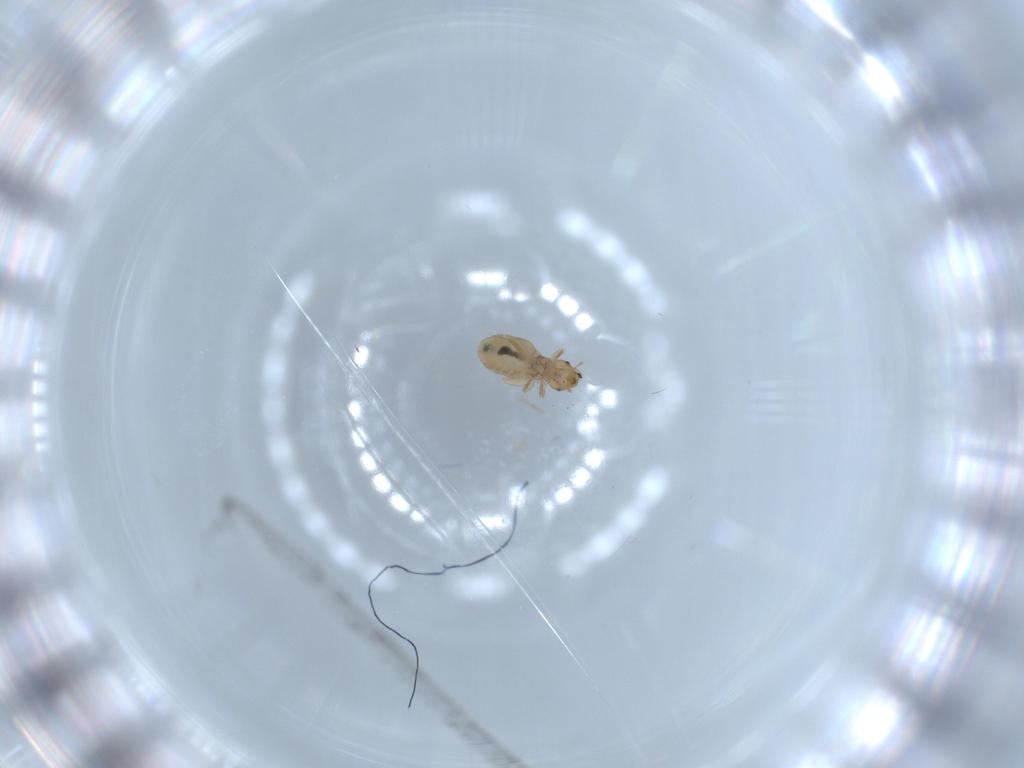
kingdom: Animalia
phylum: Arthropoda
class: Insecta
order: Psocodea
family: Liposcelididae
